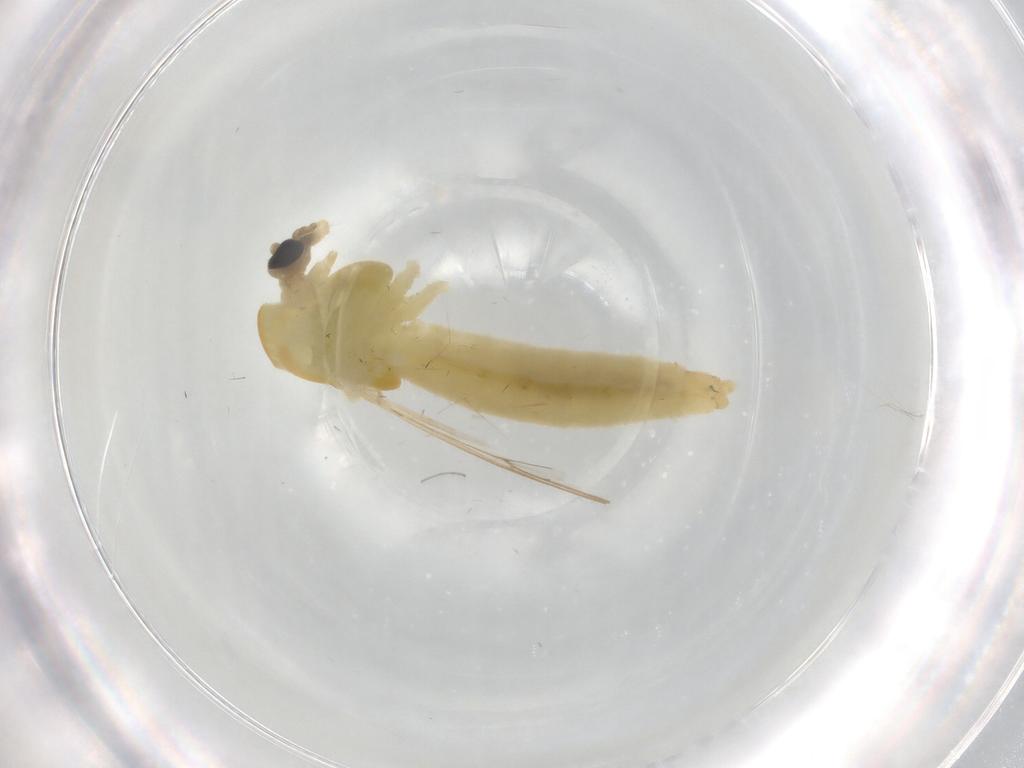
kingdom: Animalia
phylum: Arthropoda
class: Insecta
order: Diptera
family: Chironomidae
